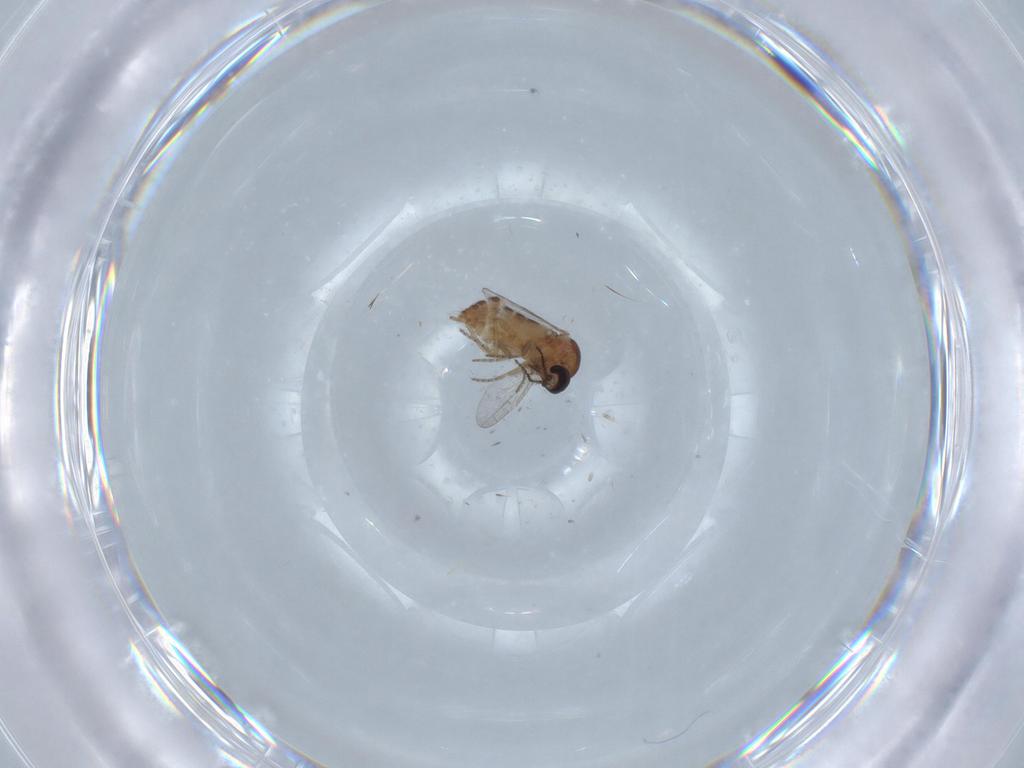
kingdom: Animalia
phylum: Arthropoda
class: Insecta
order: Diptera
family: Ceratopogonidae
